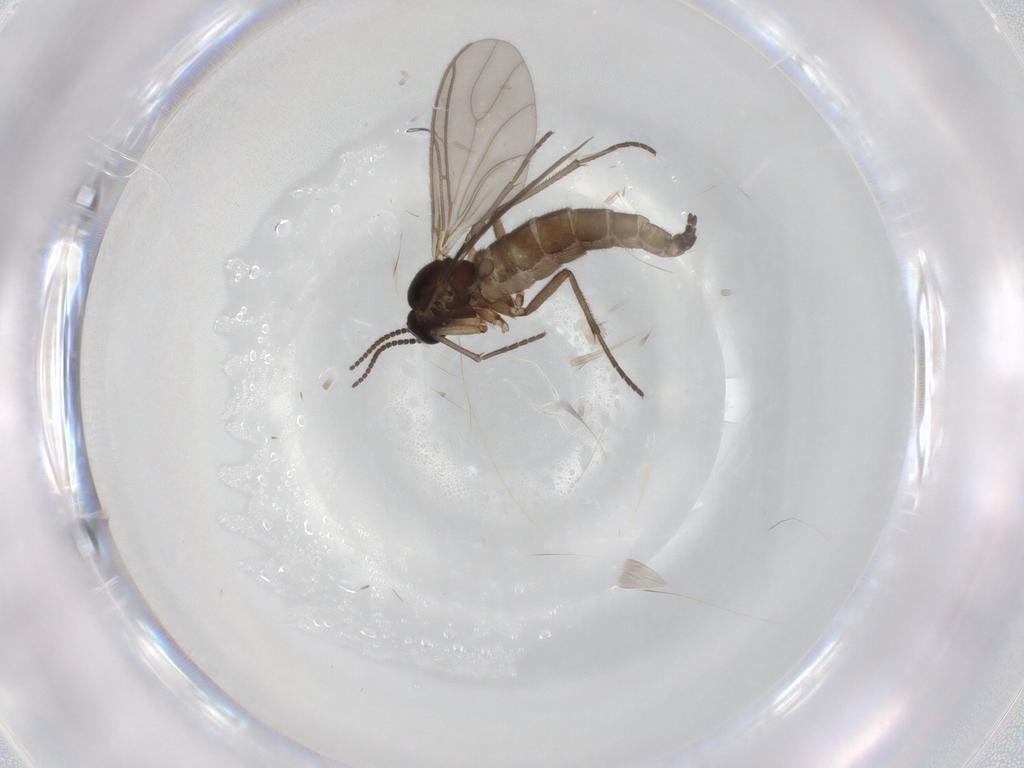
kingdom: Animalia
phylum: Arthropoda
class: Insecta
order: Diptera
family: Sciaridae
